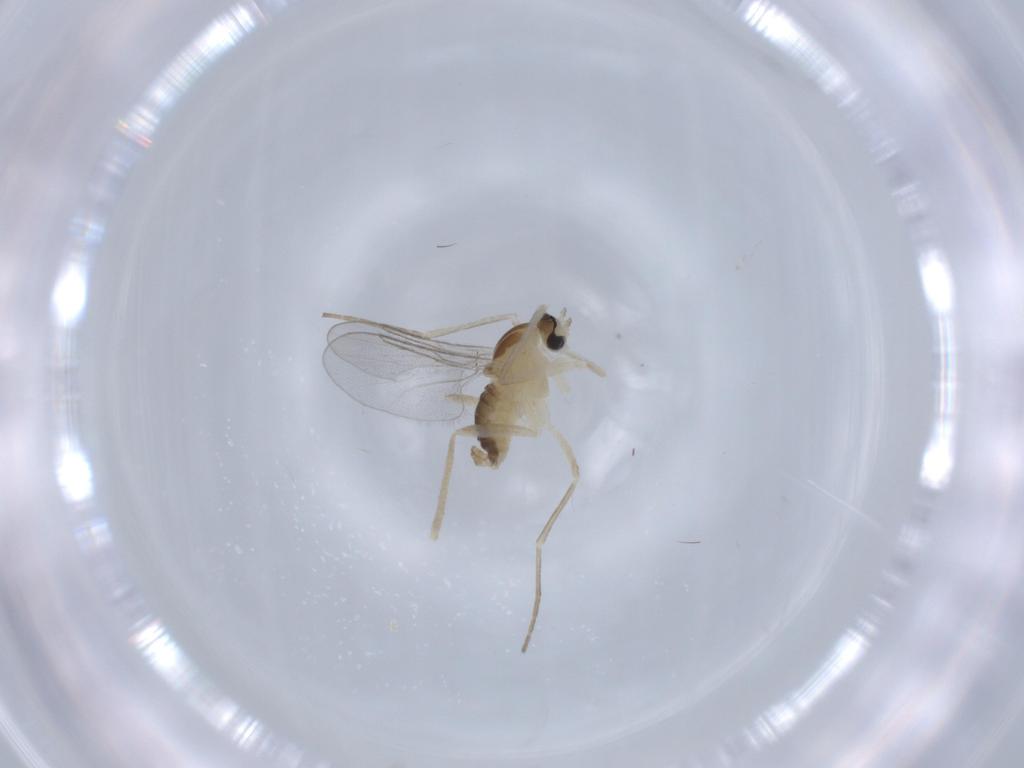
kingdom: Animalia
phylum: Arthropoda
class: Insecta
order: Diptera
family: Cecidomyiidae
